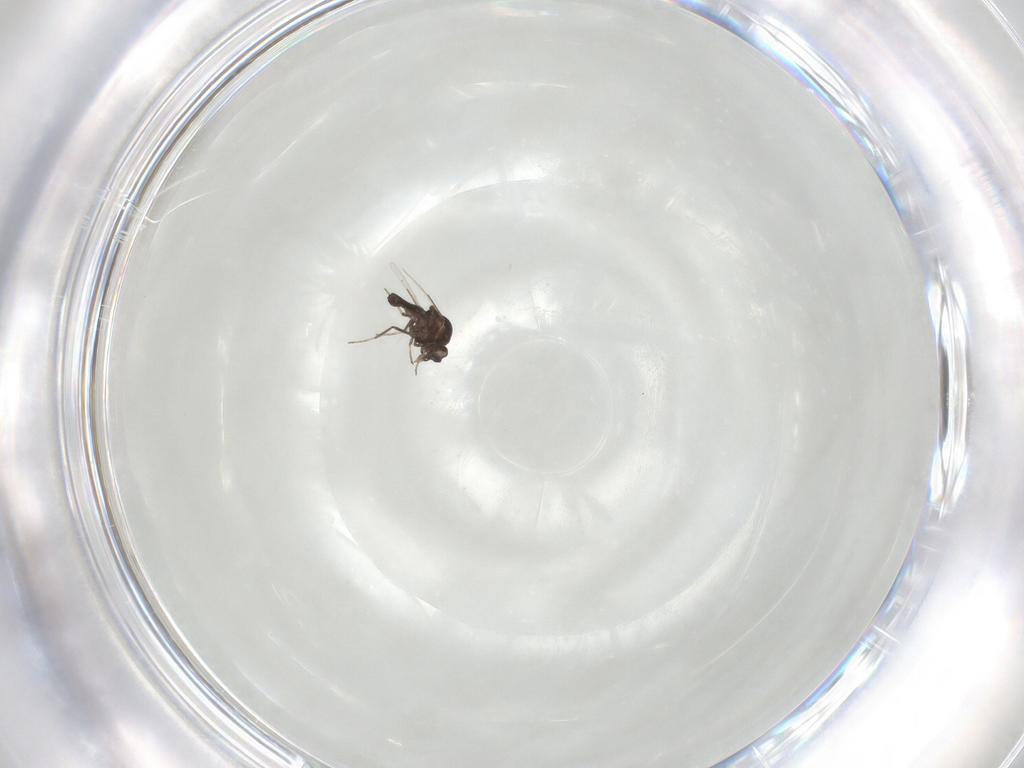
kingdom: Animalia
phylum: Arthropoda
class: Insecta
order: Diptera
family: Ceratopogonidae
